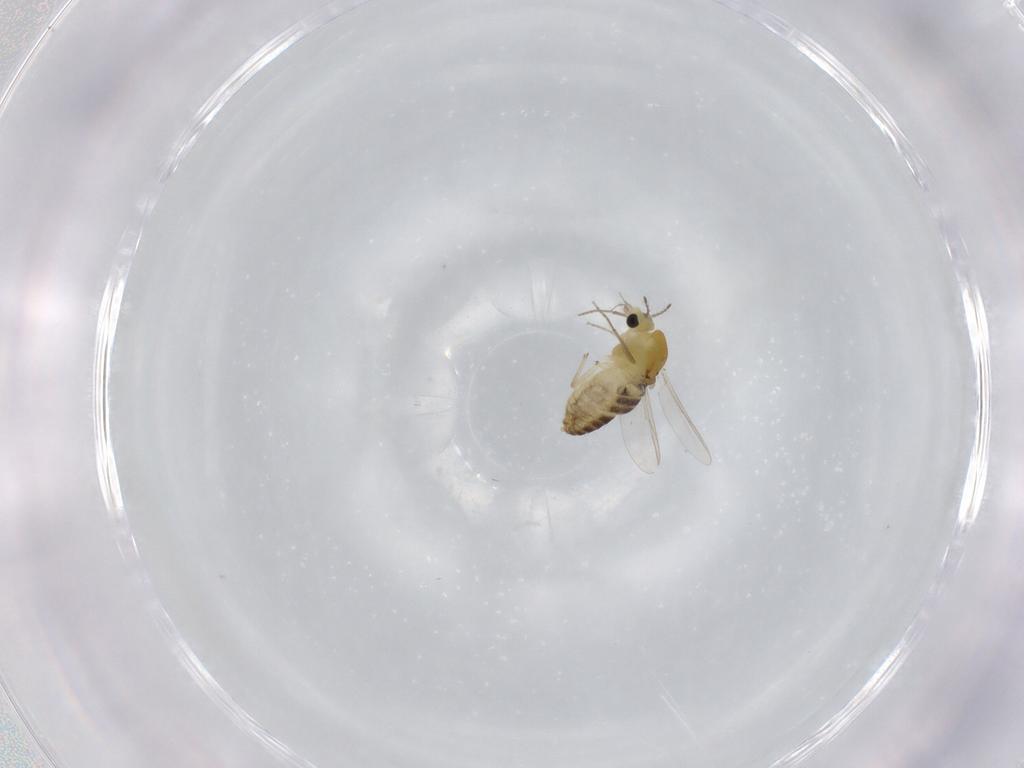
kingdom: Animalia
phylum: Arthropoda
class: Insecta
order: Diptera
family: Chironomidae
